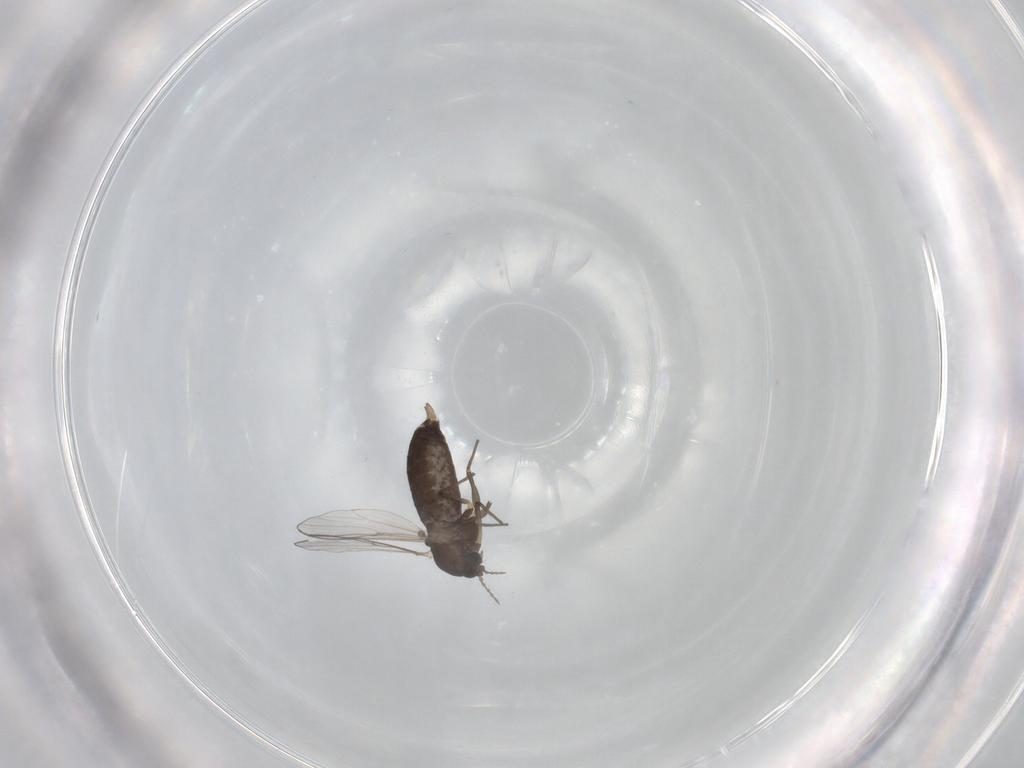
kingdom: Animalia
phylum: Arthropoda
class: Insecta
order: Diptera
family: Chironomidae
